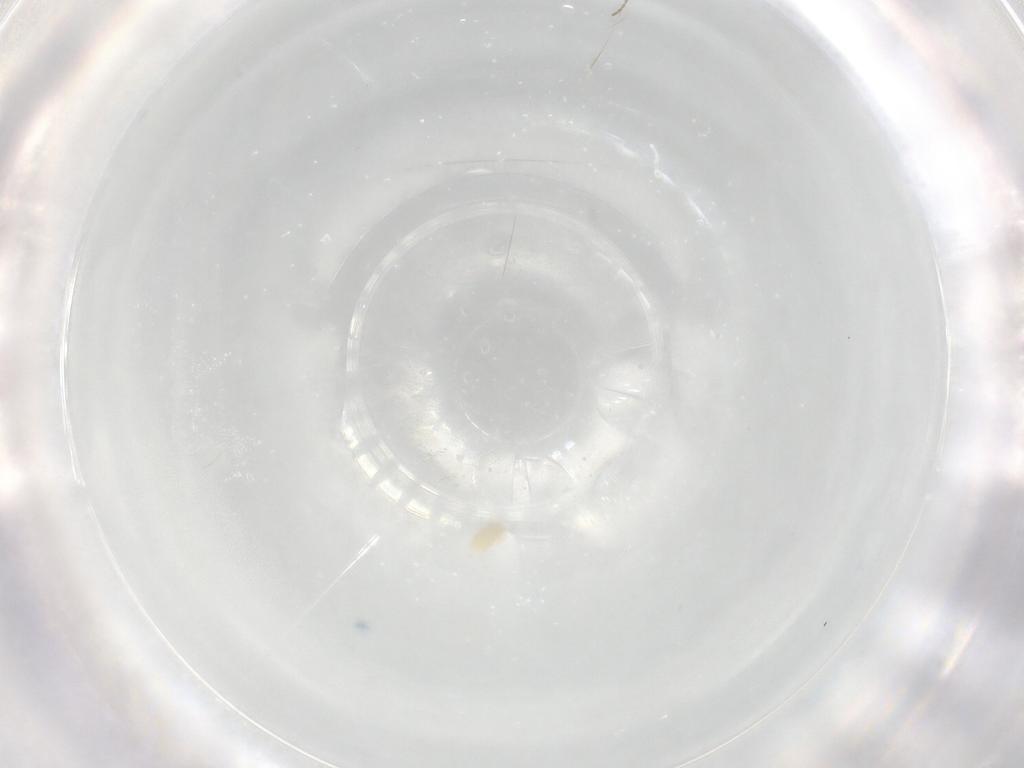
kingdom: Animalia
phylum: Arthropoda
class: Arachnida
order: Trombidiformes
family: Eupodidae
